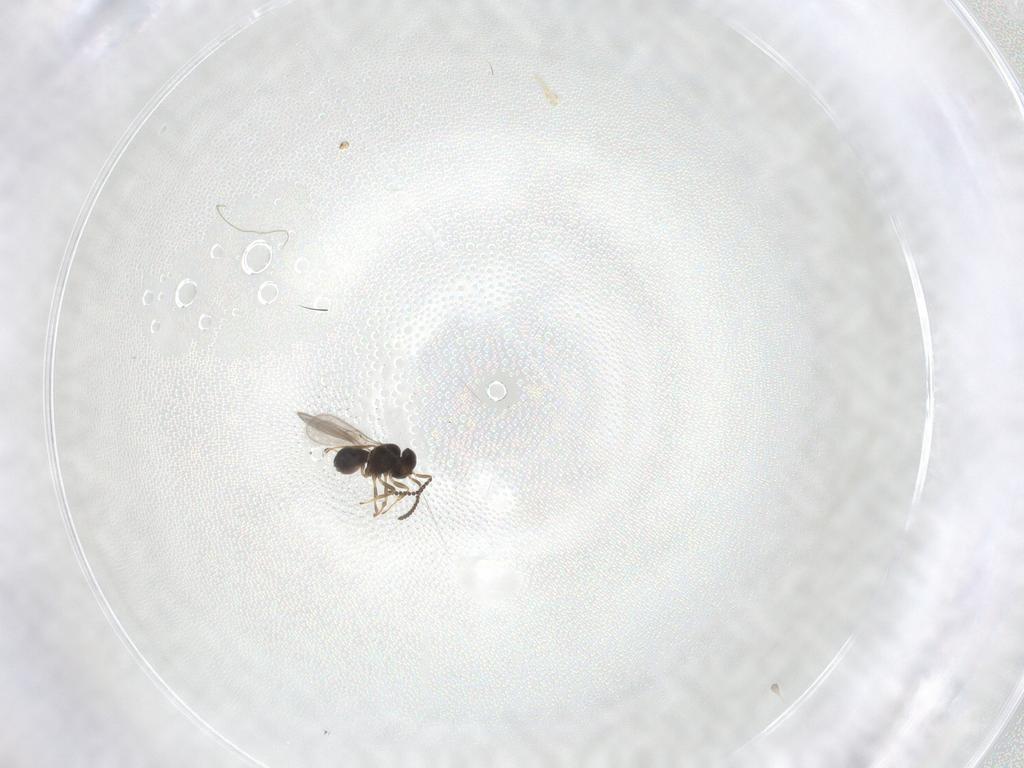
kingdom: Animalia
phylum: Arthropoda
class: Insecta
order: Hymenoptera
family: Scelionidae
